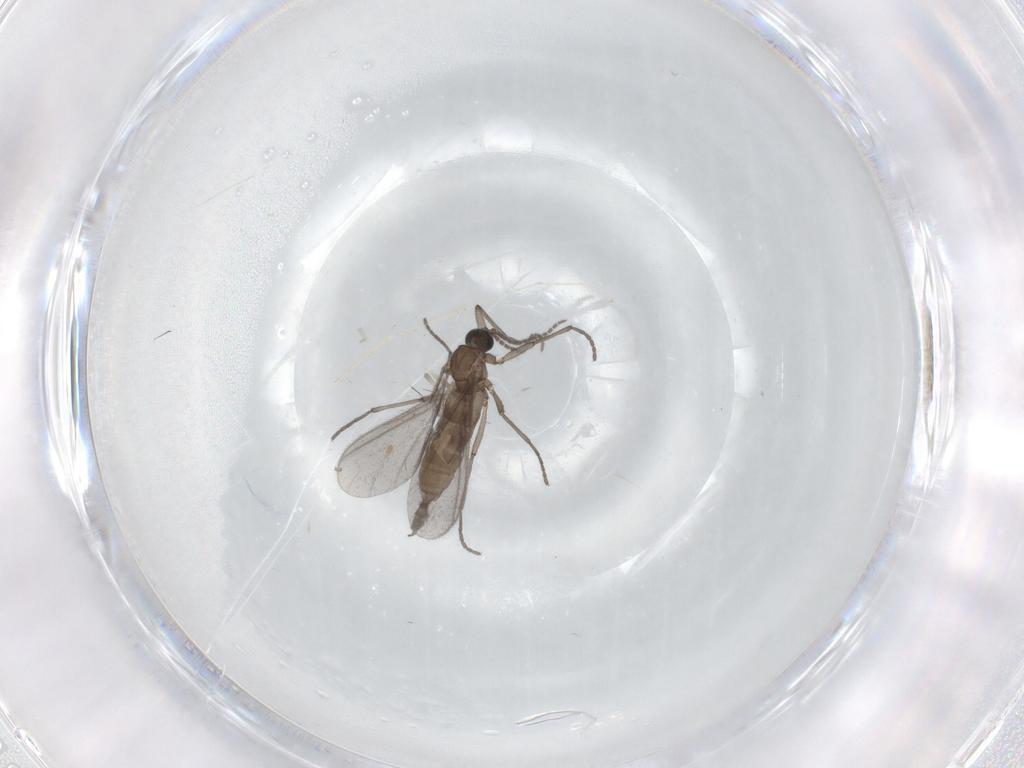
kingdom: Animalia
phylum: Arthropoda
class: Insecta
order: Diptera
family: Sciaridae
